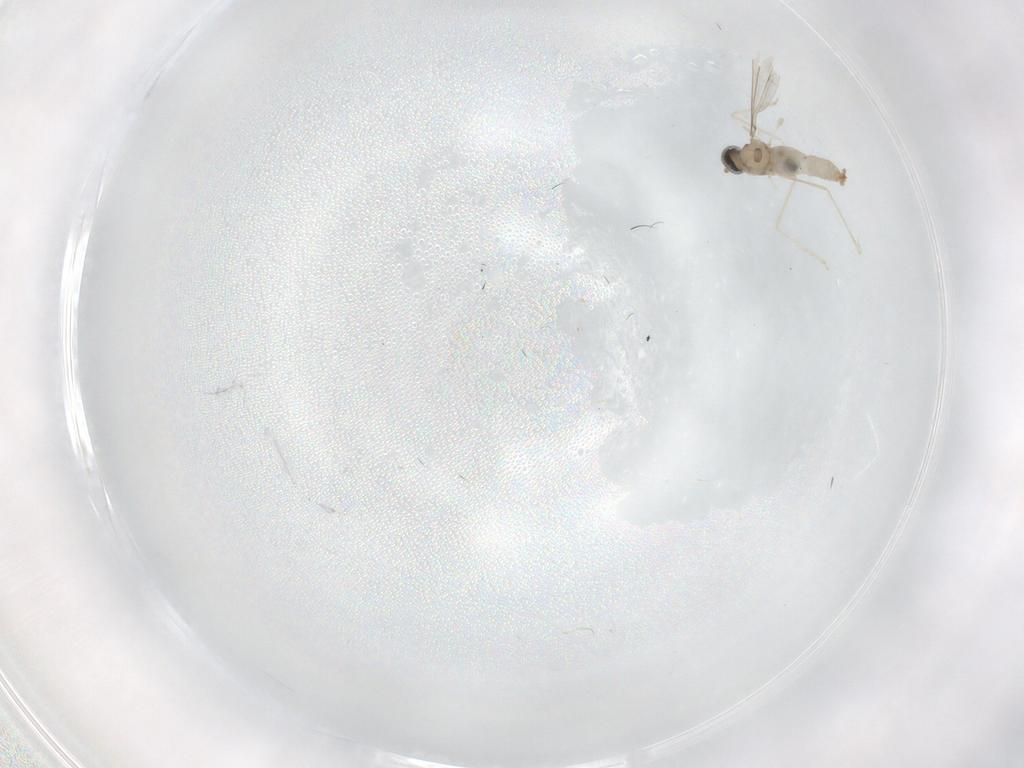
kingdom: Animalia
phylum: Arthropoda
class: Insecta
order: Diptera
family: Cecidomyiidae
